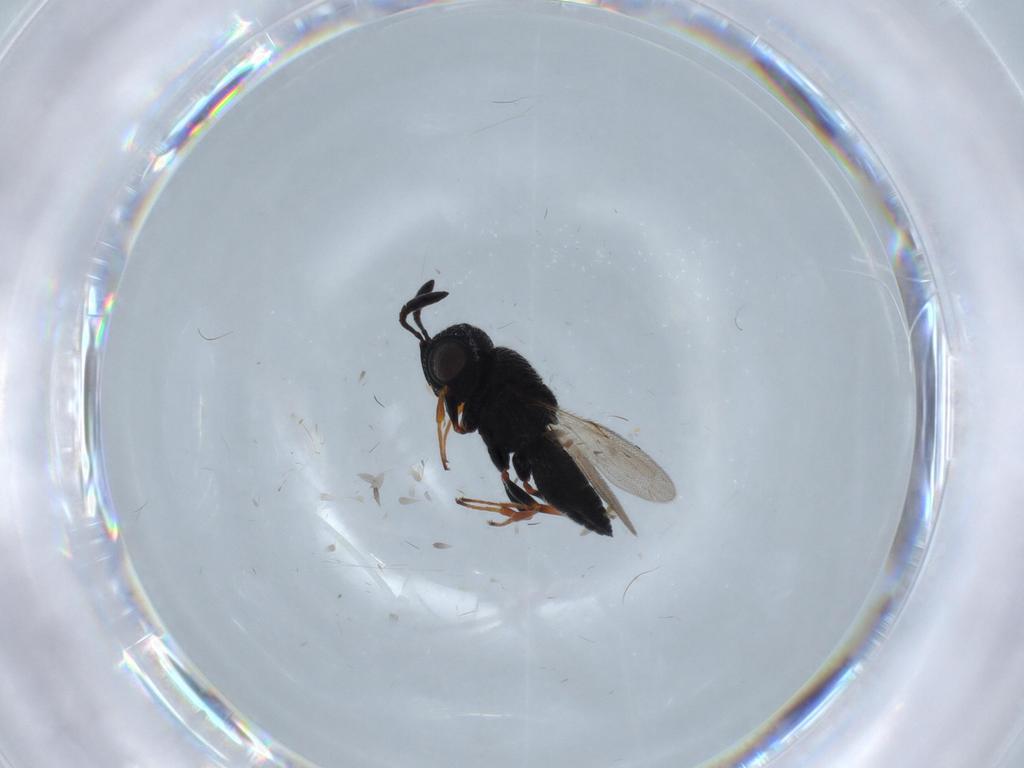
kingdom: Animalia
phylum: Arthropoda
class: Insecta
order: Hymenoptera
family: Scelionidae
